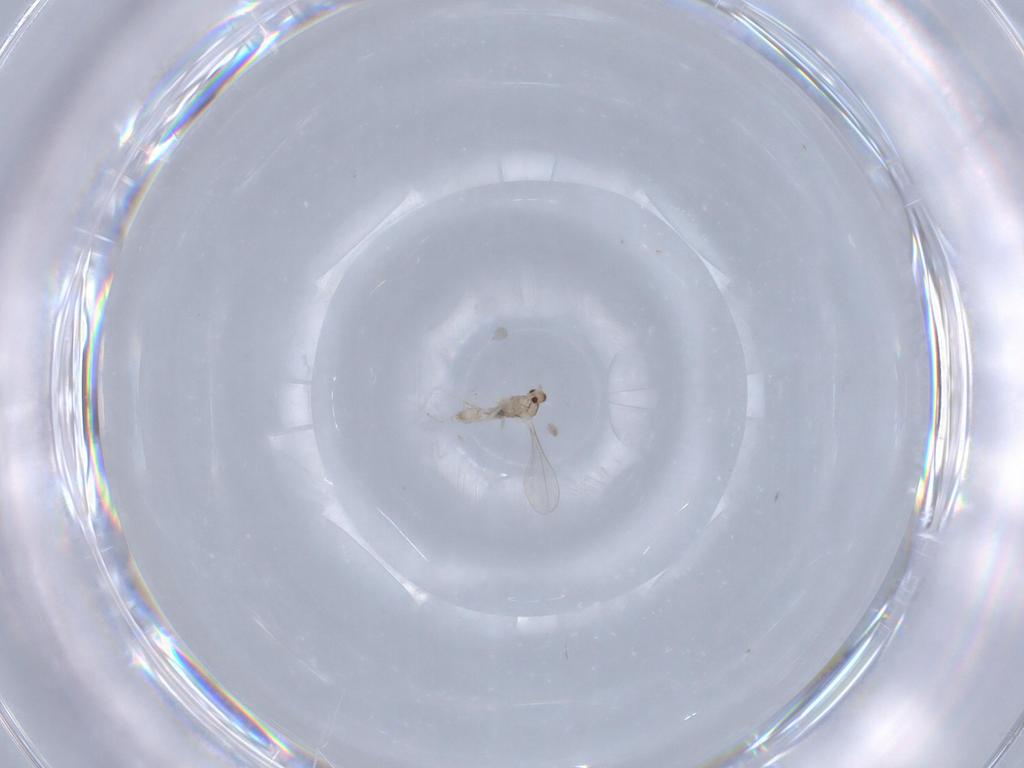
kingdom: Animalia
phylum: Arthropoda
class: Insecta
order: Diptera
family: Cecidomyiidae
